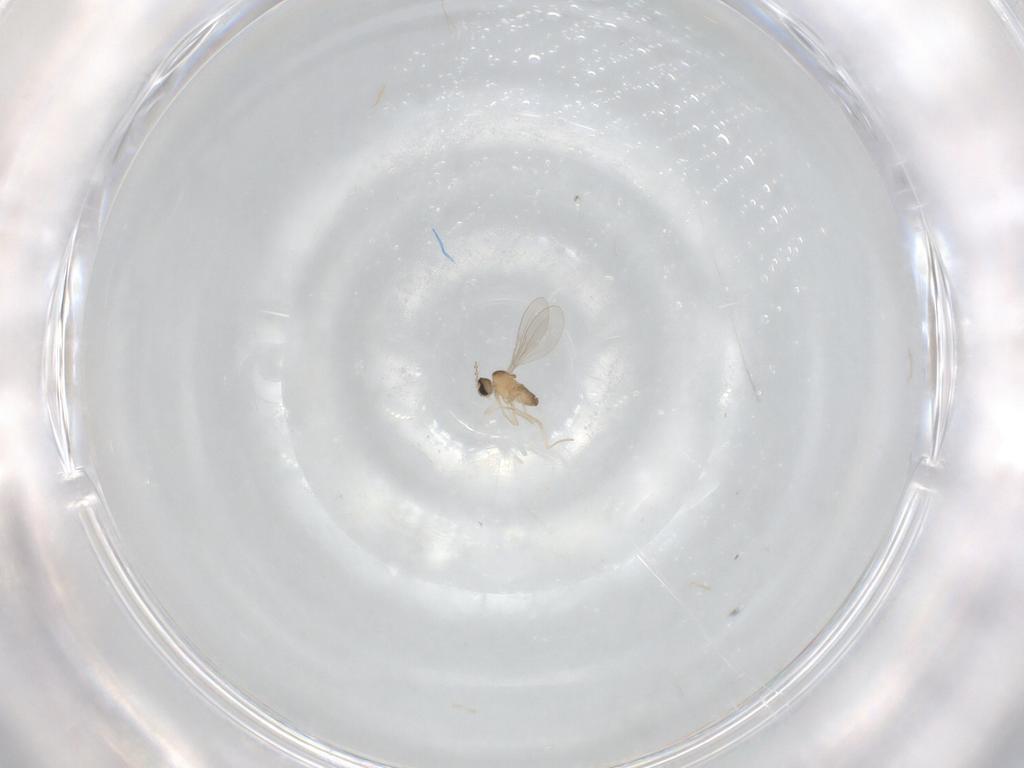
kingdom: Animalia
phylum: Arthropoda
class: Insecta
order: Diptera
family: Cecidomyiidae
